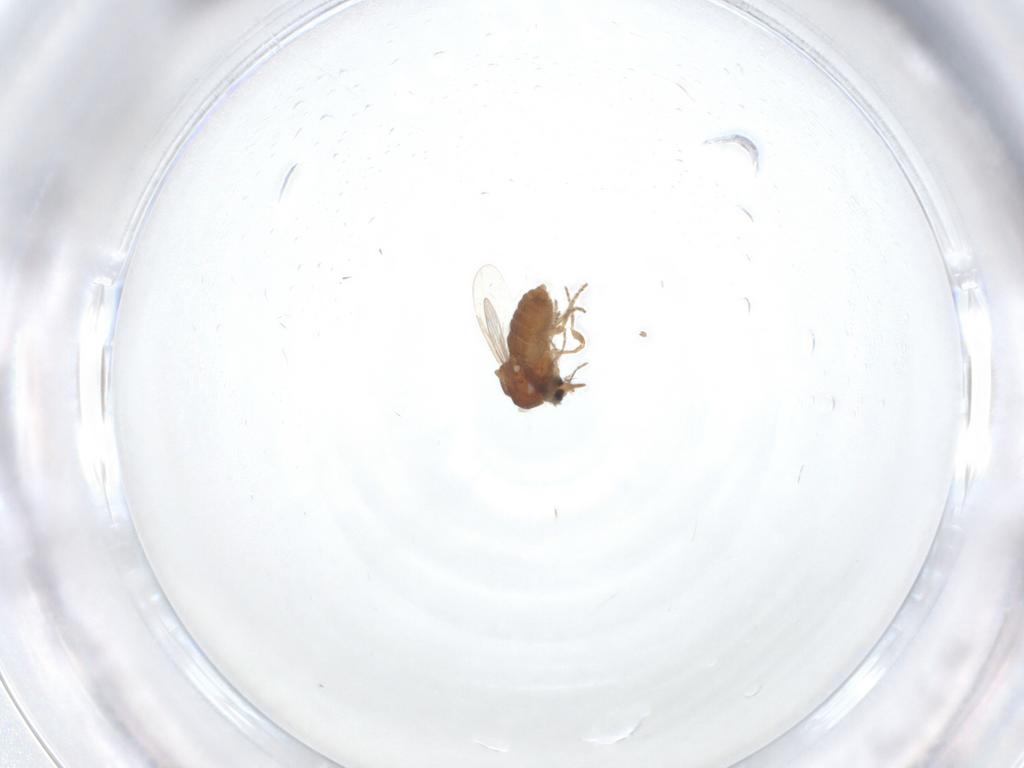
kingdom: Animalia
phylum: Arthropoda
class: Insecta
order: Diptera
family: Ceratopogonidae
